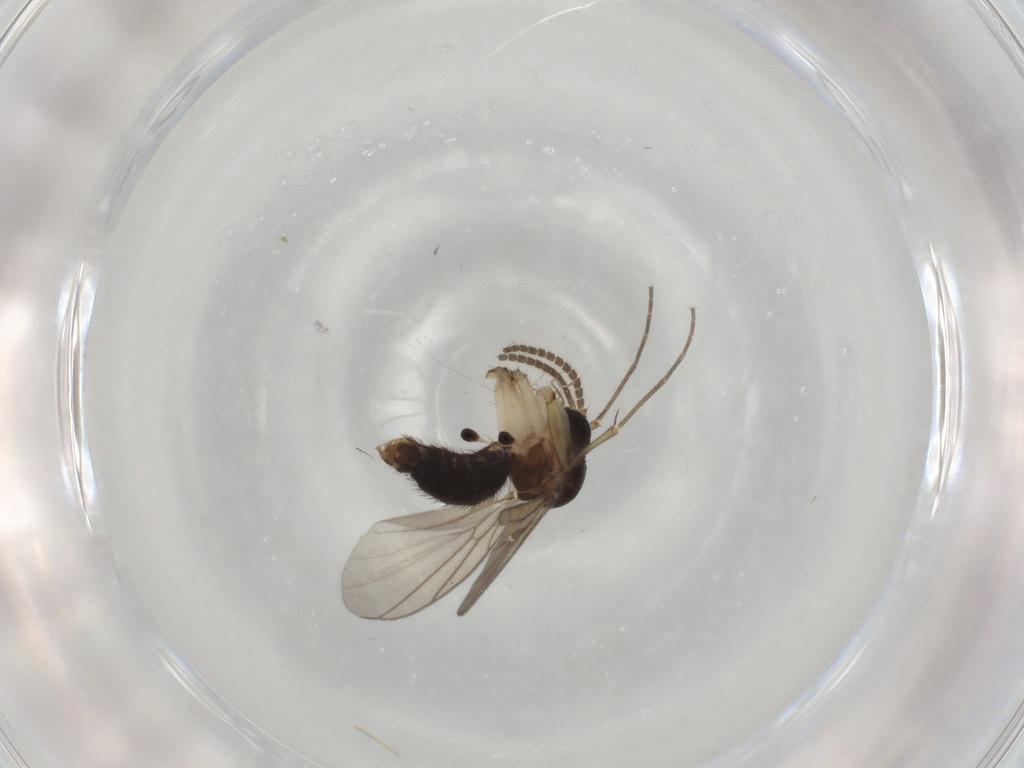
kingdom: Animalia
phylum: Arthropoda
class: Insecta
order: Diptera
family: Mycetophilidae
